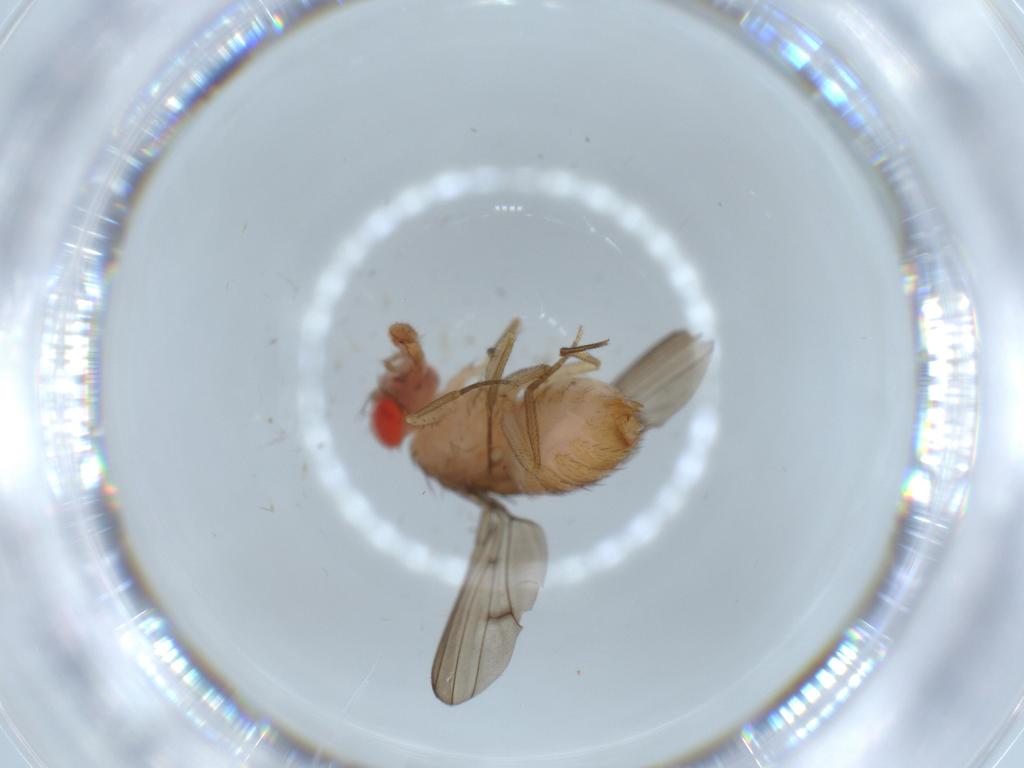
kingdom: Animalia
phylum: Arthropoda
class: Insecta
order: Diptera
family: Drosophilidae
